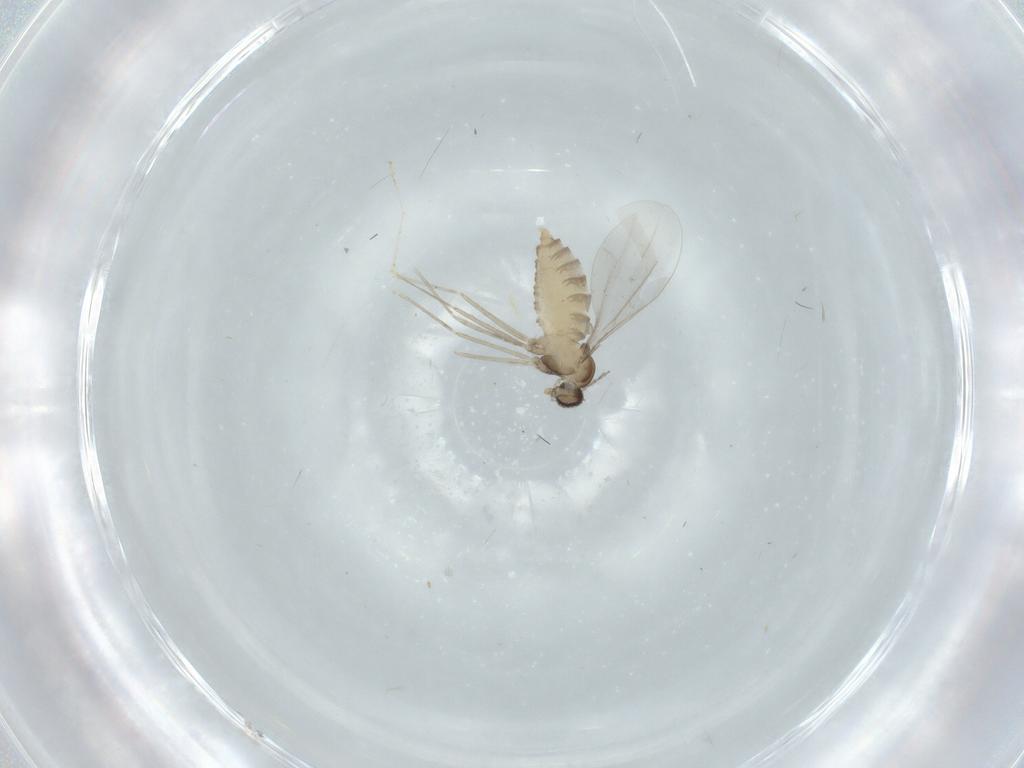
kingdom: Animalia
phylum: Arthropoda
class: Insecta
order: Diptera
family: Cecidomyiidae
